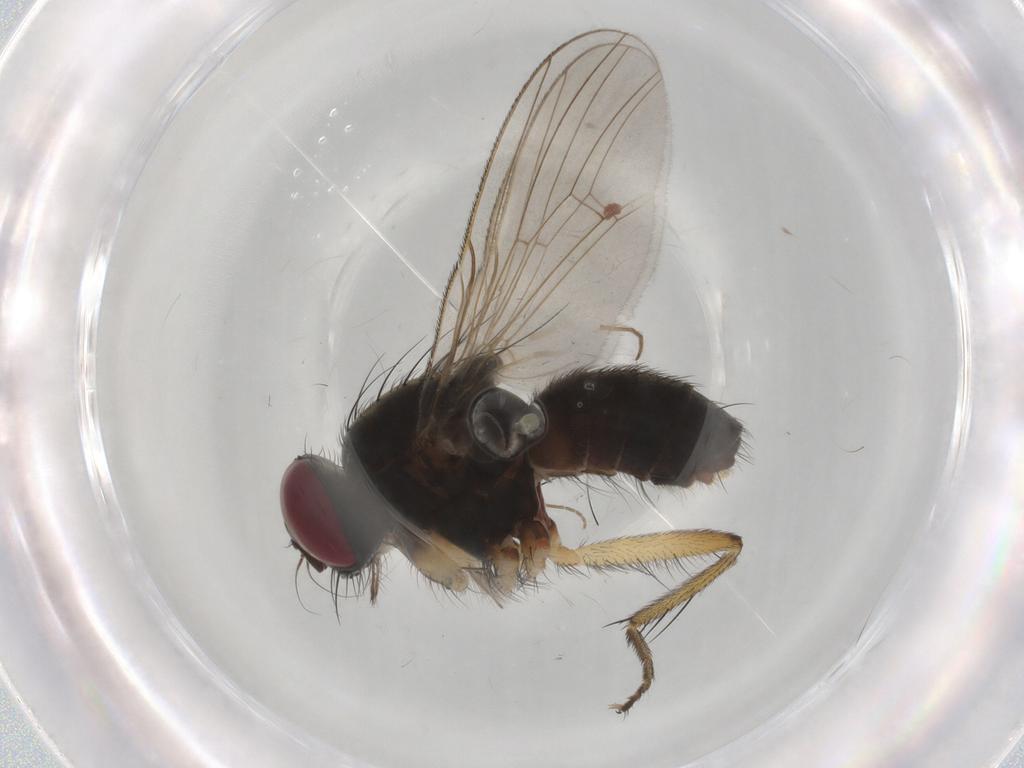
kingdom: Animalia
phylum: Arthropoda
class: Insecta
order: Diptera
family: Muscidae
